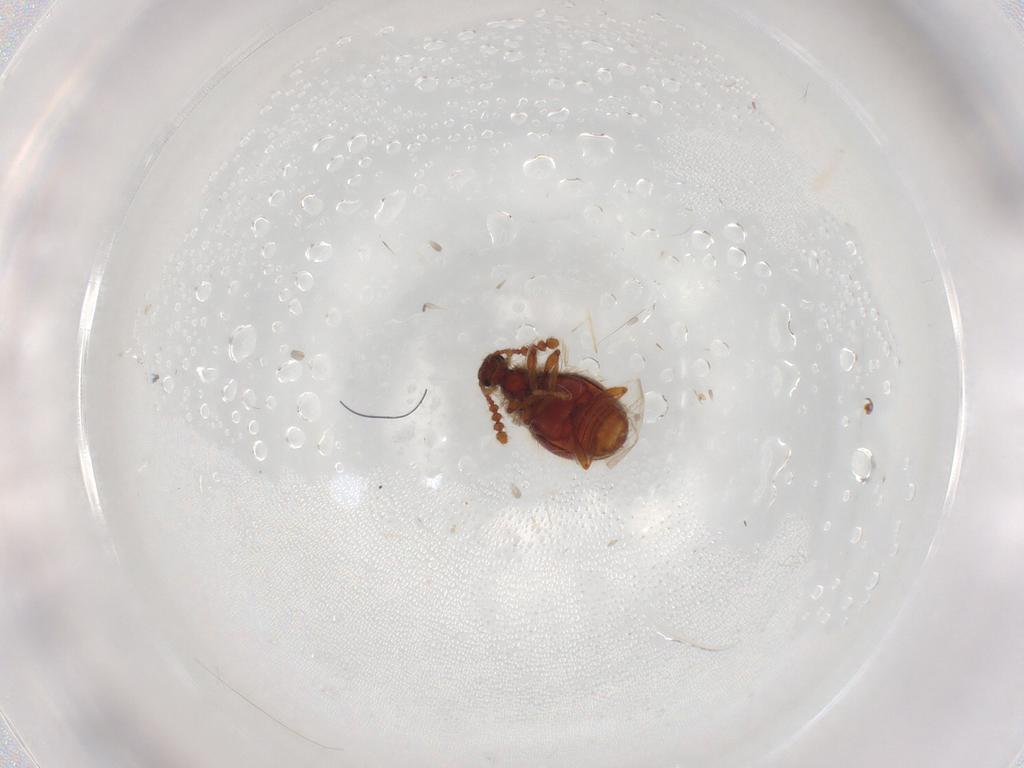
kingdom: Animalia
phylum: Arthropoda
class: Insecta
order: Coleoptera
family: Staphylinidae
